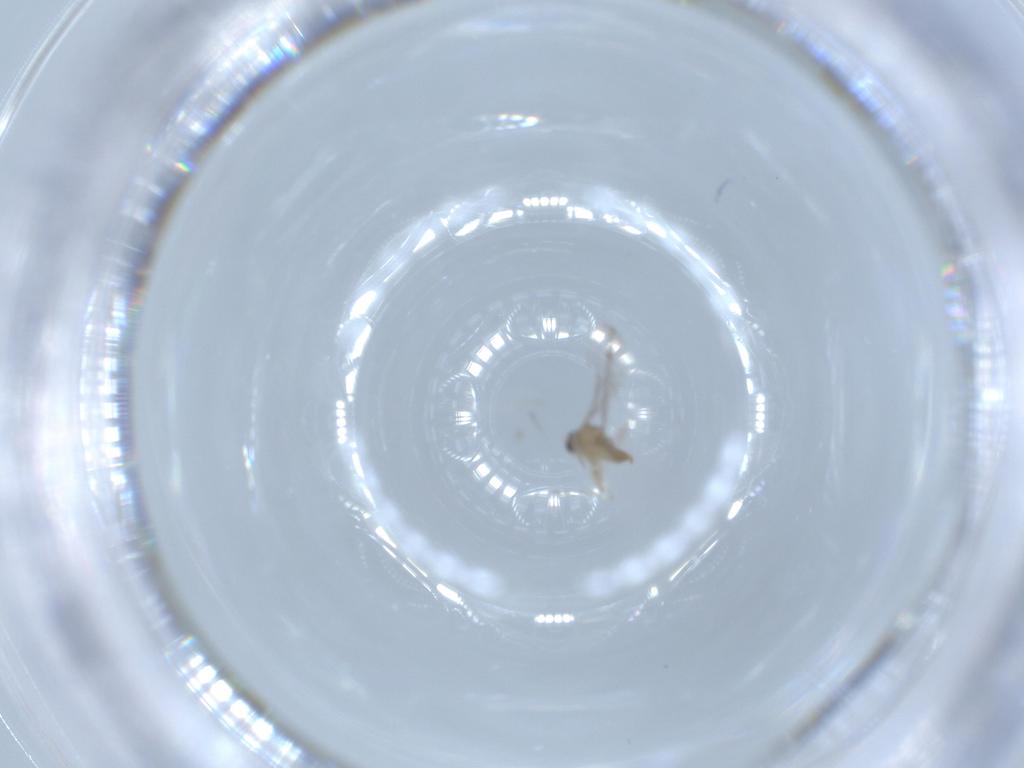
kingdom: Animalia
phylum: Arthropoda
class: Insecta
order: Diptera
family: Cecidomyiidae
